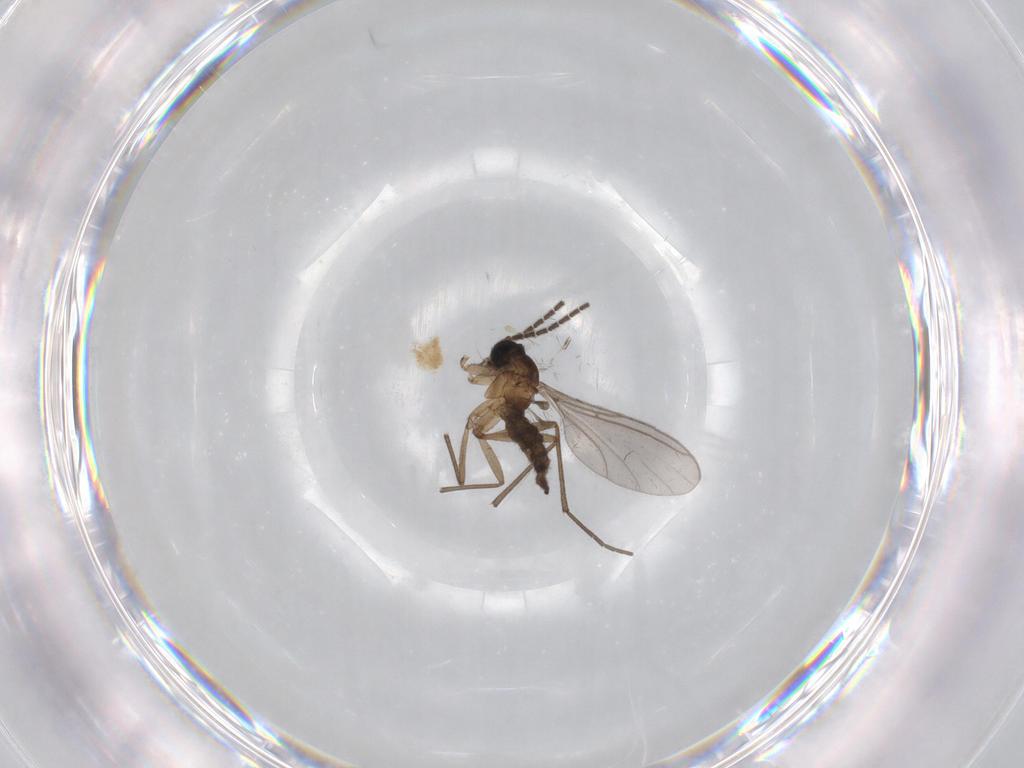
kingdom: Animalia
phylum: Arthropoda
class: Insecta
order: Diptera
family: Sciaridae
